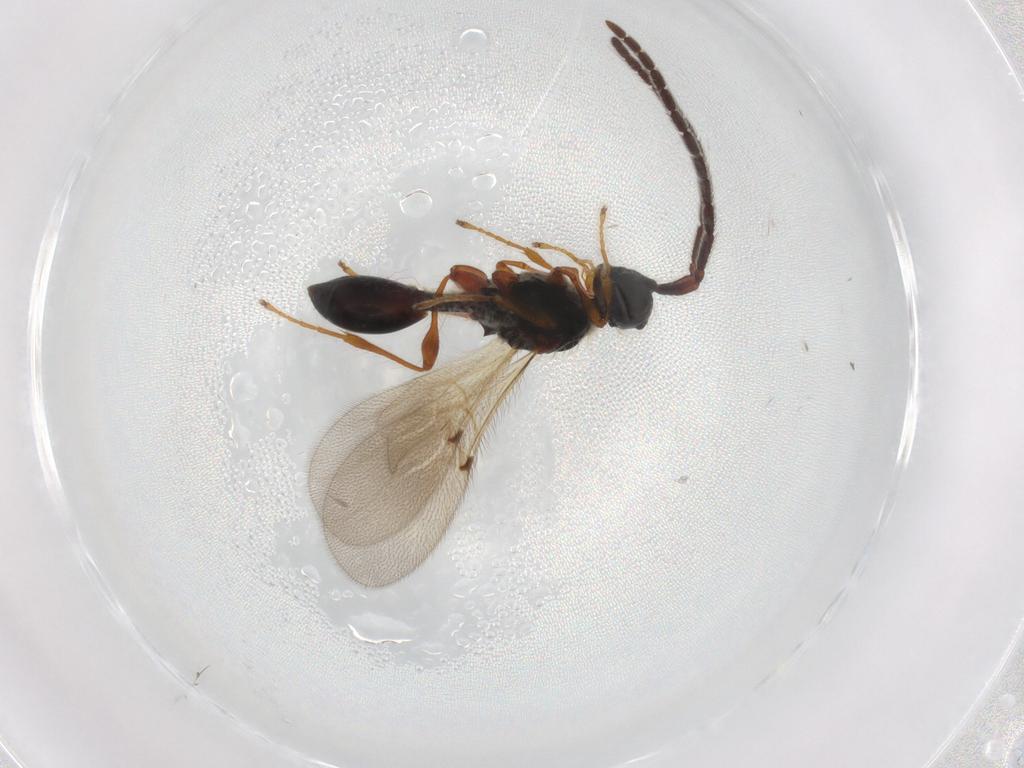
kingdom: Animalia
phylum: Arthropoda
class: Insecta
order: Hymenoptera
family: Diapriidae
